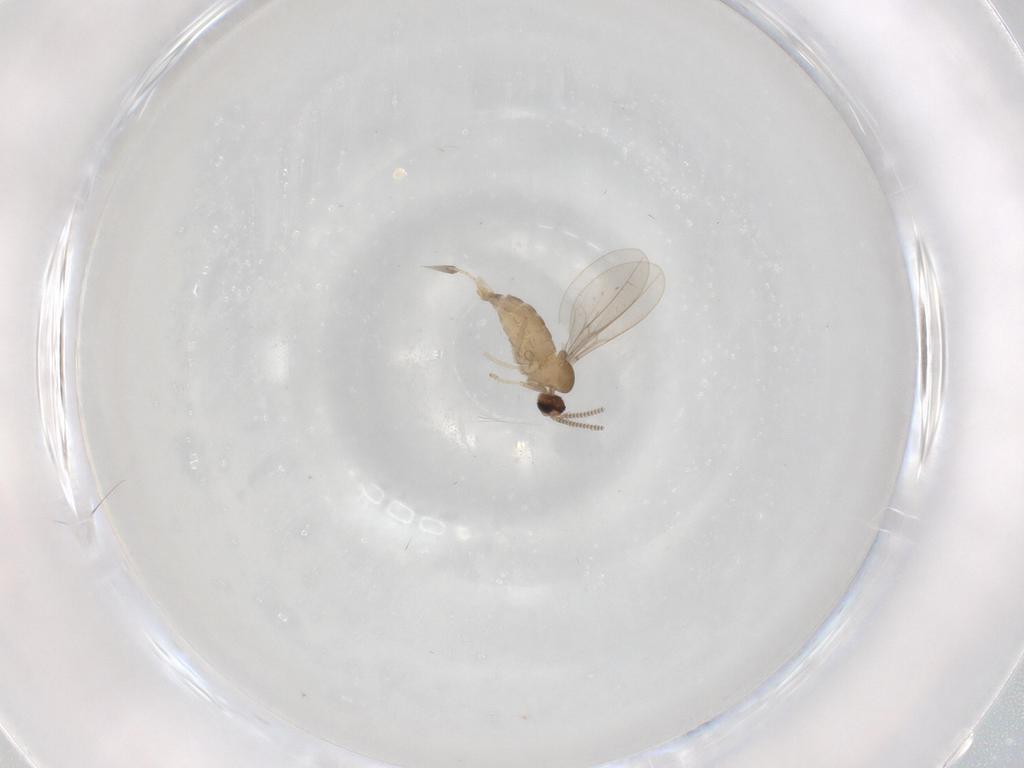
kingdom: Animalia
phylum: Arthropoda
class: Insecta
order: Diptera
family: Cecidomyiidae
